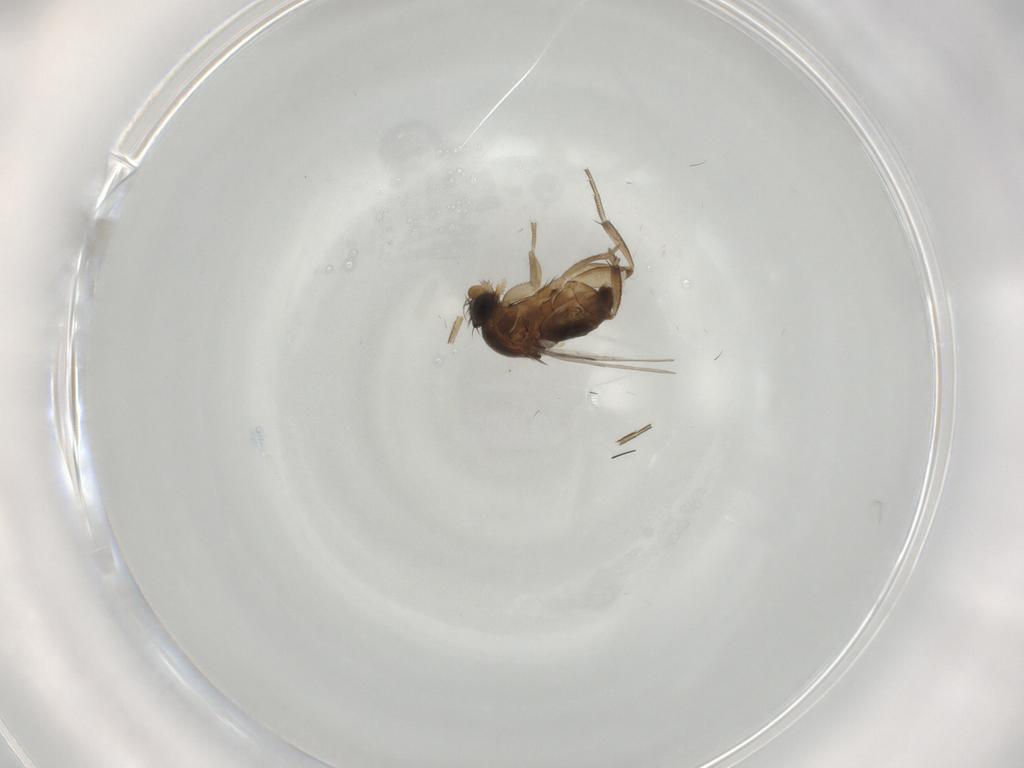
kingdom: Animalia
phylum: Arthropoda
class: Insecta
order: Diptera
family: Phoridae
